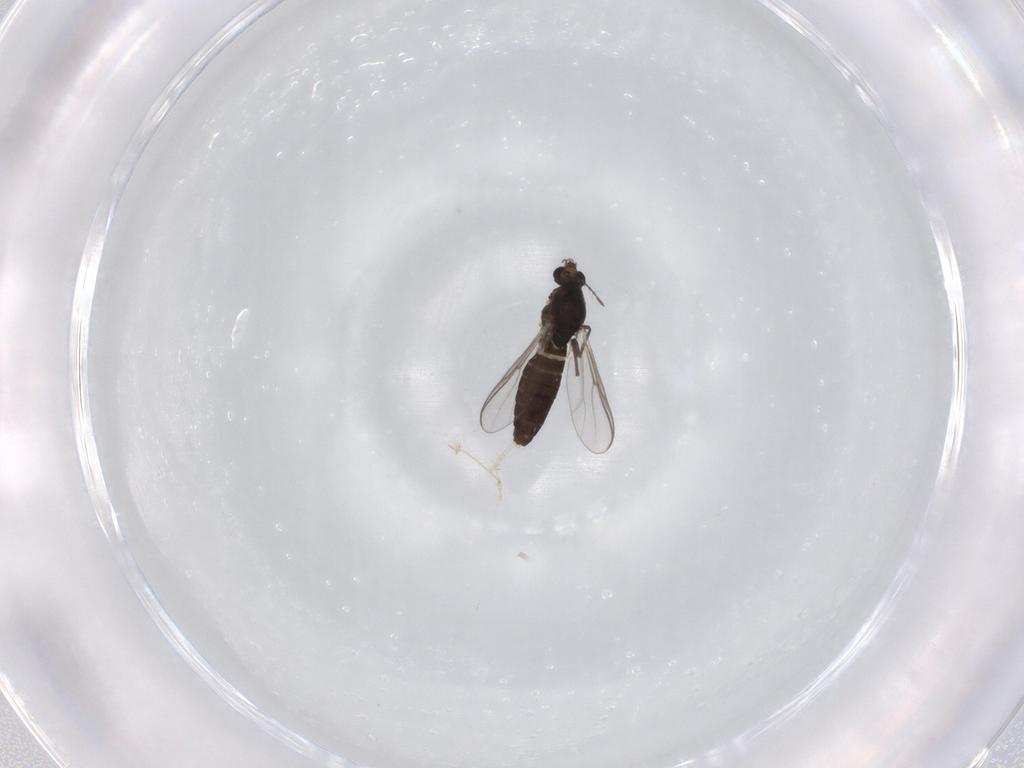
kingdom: Animalia
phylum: Arthropoda
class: Insecta
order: Diptera
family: Chironomidae
